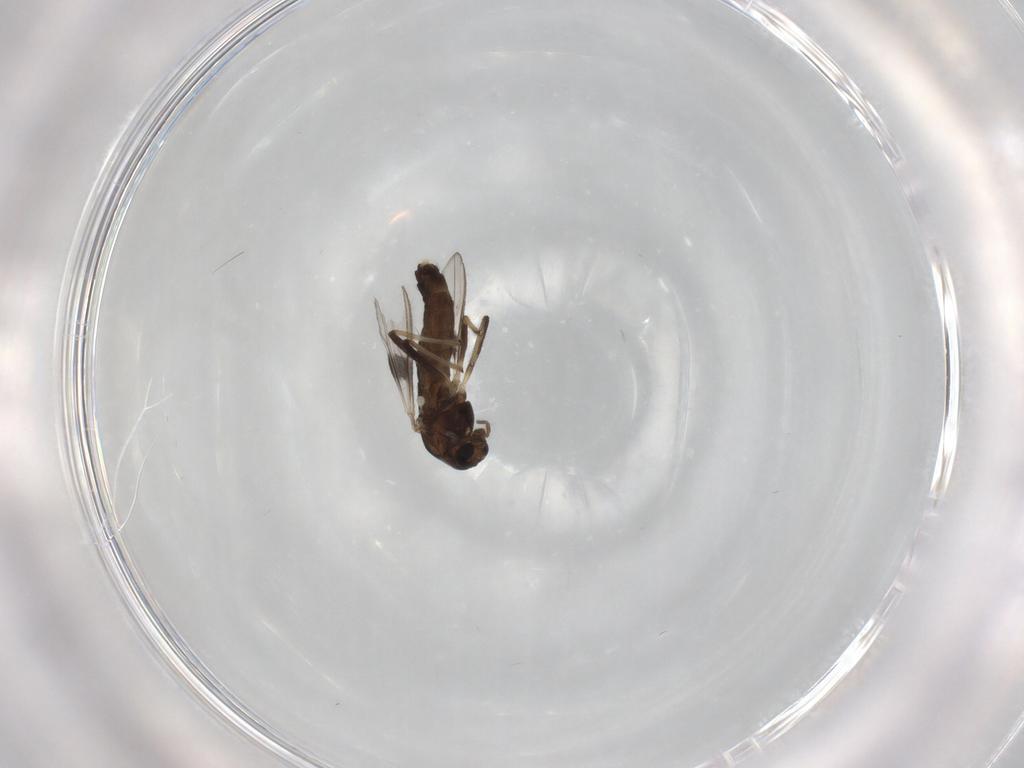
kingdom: Animalia
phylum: Arthropoda
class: Insecta
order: Diptera
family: Chironomidae
